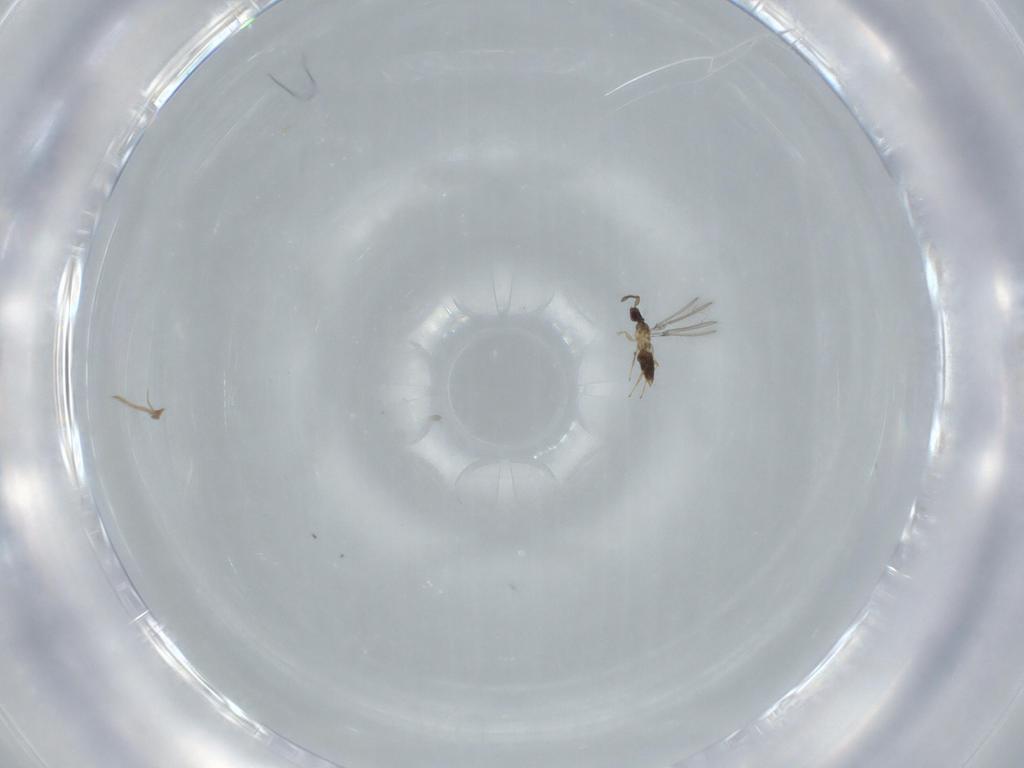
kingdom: Animalia
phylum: Arthropoda
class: Insecta
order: Hymenoptera
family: Mymaridae
